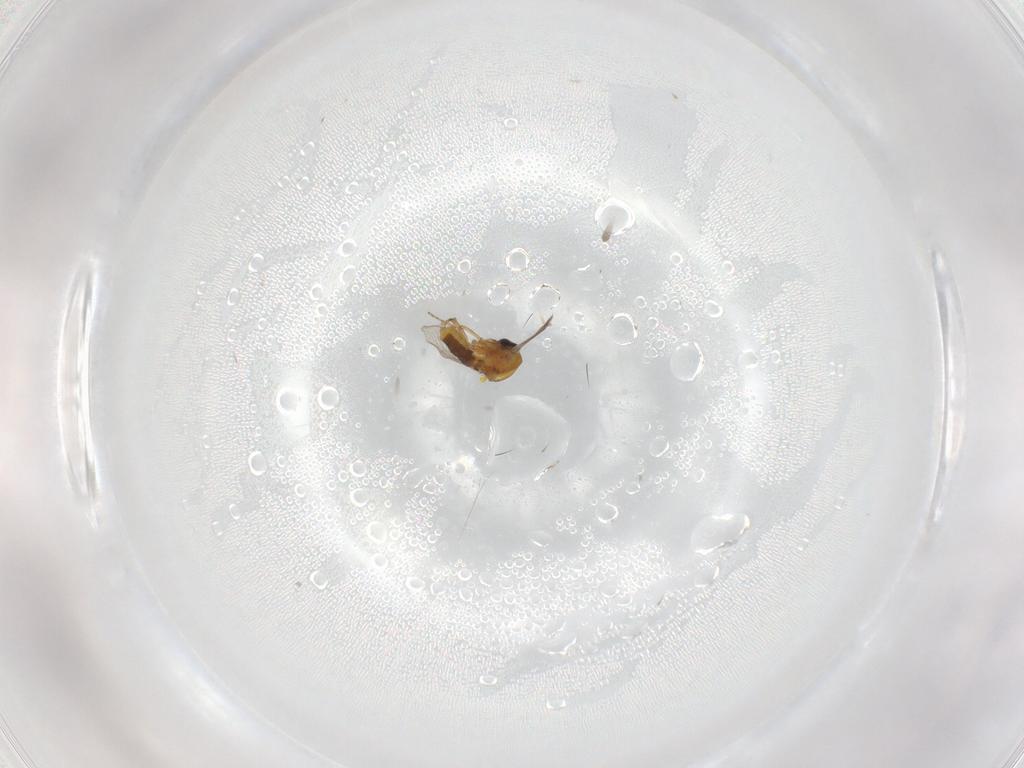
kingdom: Animalia
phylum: Arthropoda
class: Insecta
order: Diptera
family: Ceratopogonidae
